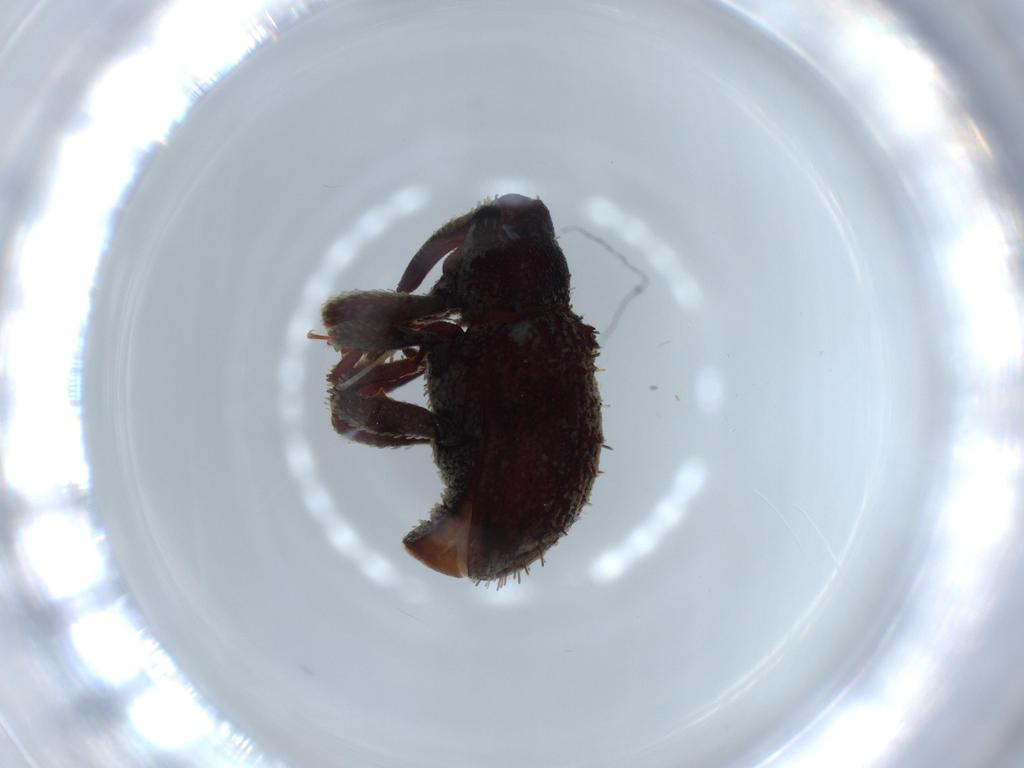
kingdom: Animalia
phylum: Arthropoda
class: Insecta
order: Coleoptera
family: Curculionidae
